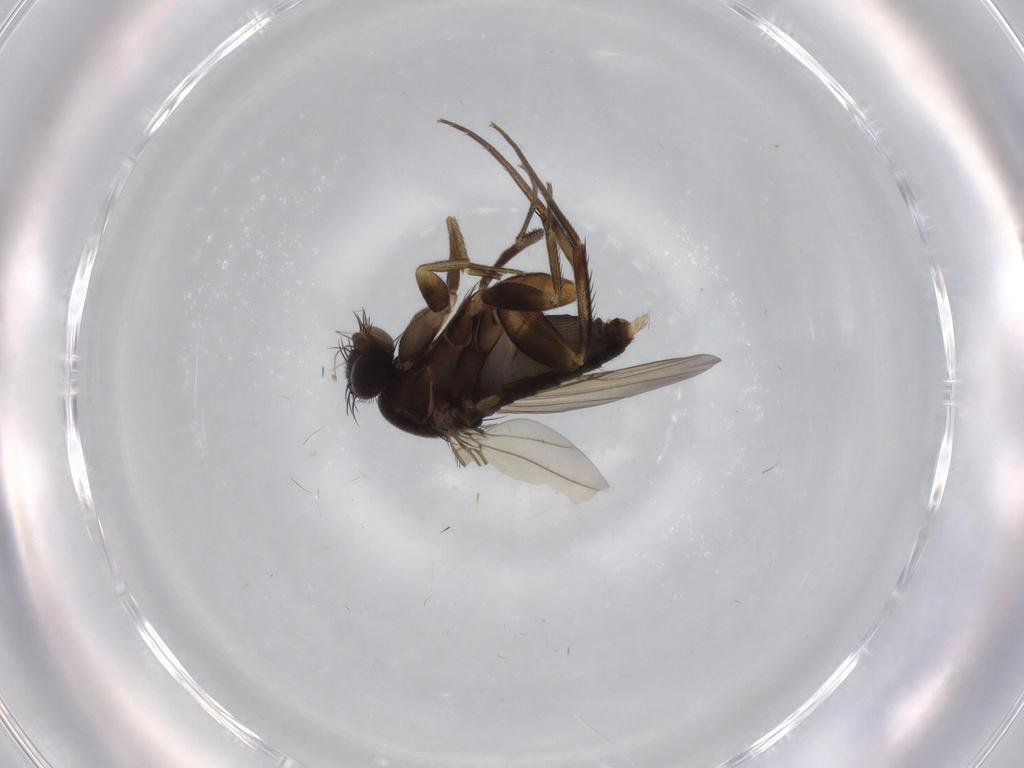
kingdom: Animalia
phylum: Arthropoda
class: Insecta
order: Diptera
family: Phoridae
